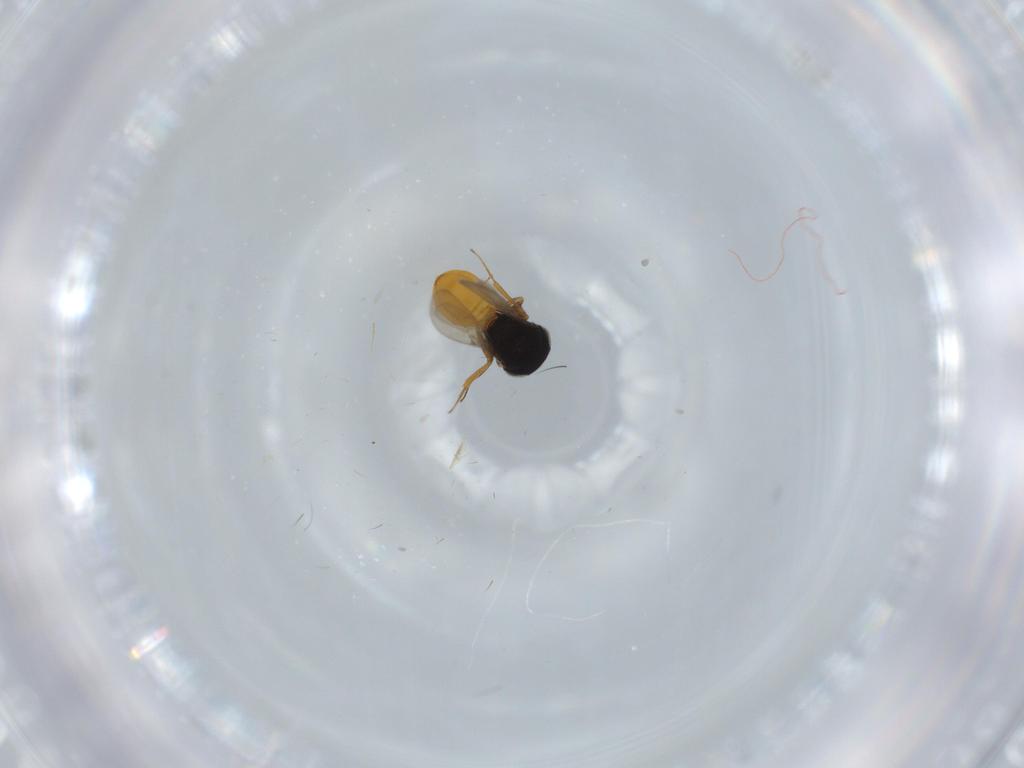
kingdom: Animalia
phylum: Arthropoda
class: Insecta
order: Hymenoptera
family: Scelionidae
